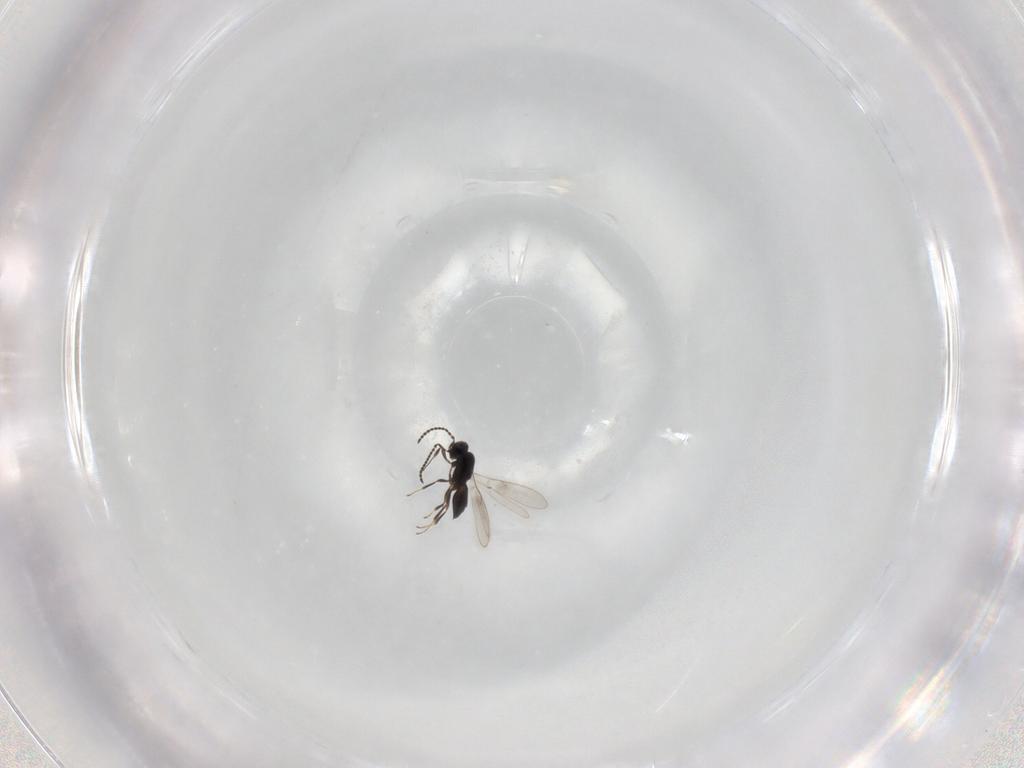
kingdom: Animalia
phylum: Arthropoda
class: Insecta
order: Hymenoptera
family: Scelionidae
